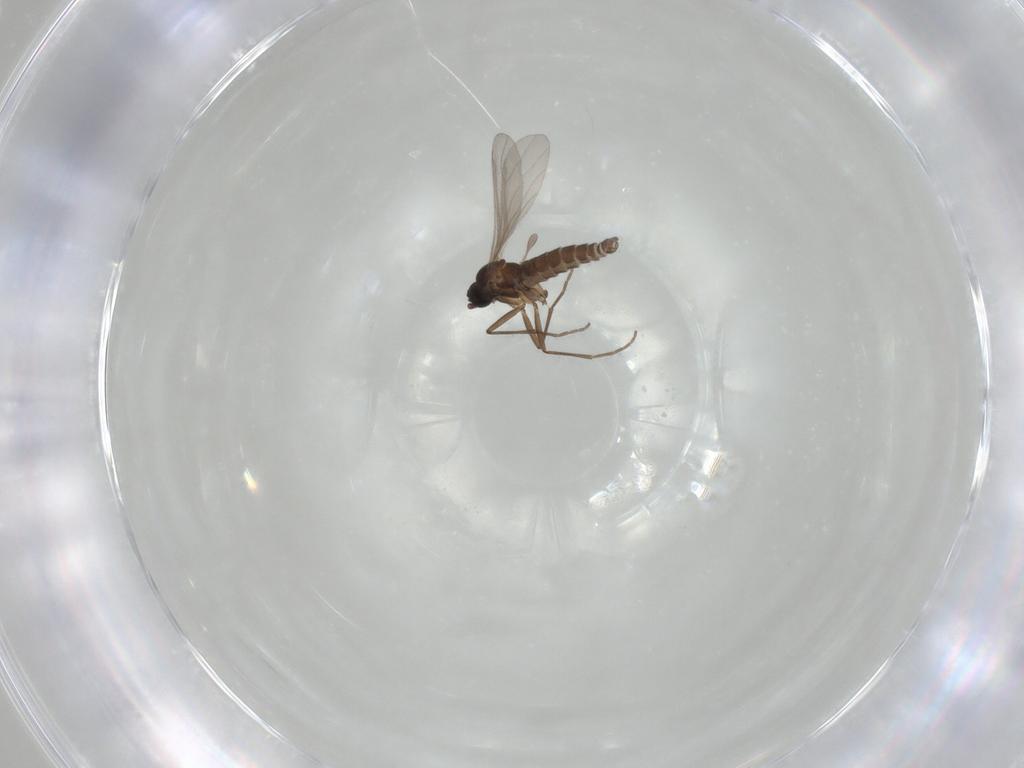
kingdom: Animalia
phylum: Arthropoda
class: Insecta
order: Diptera
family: Sciaridae
